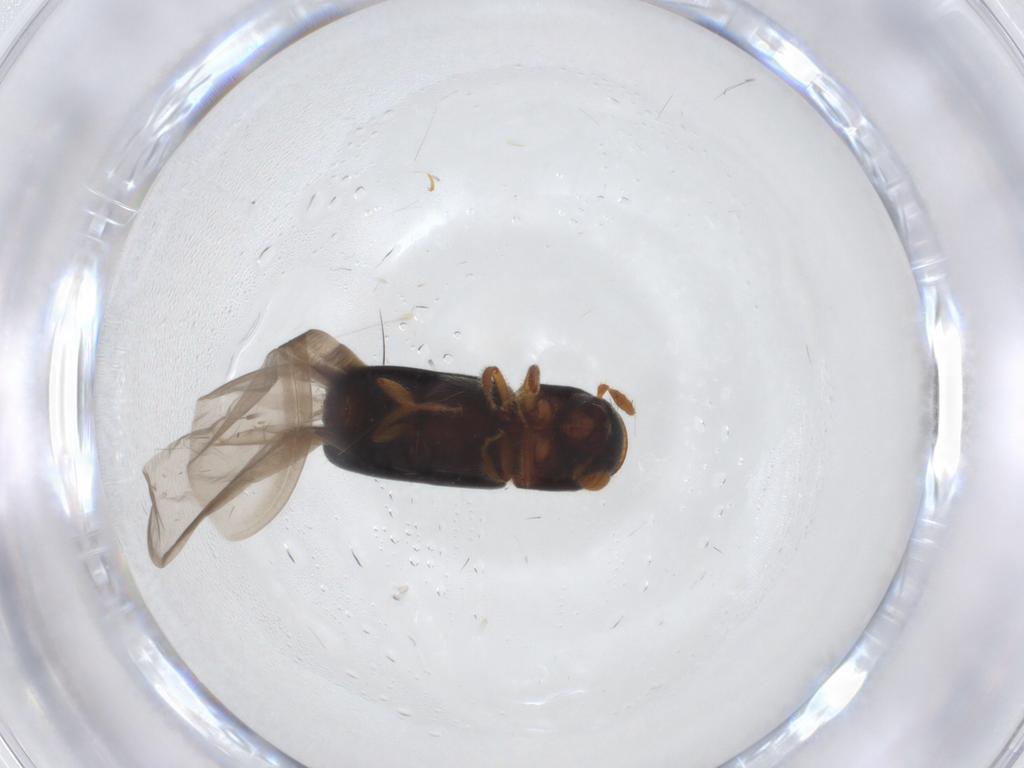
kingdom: Animalia
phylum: Arthropoda
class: Insecta
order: Coleoptera
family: Curculionidae
